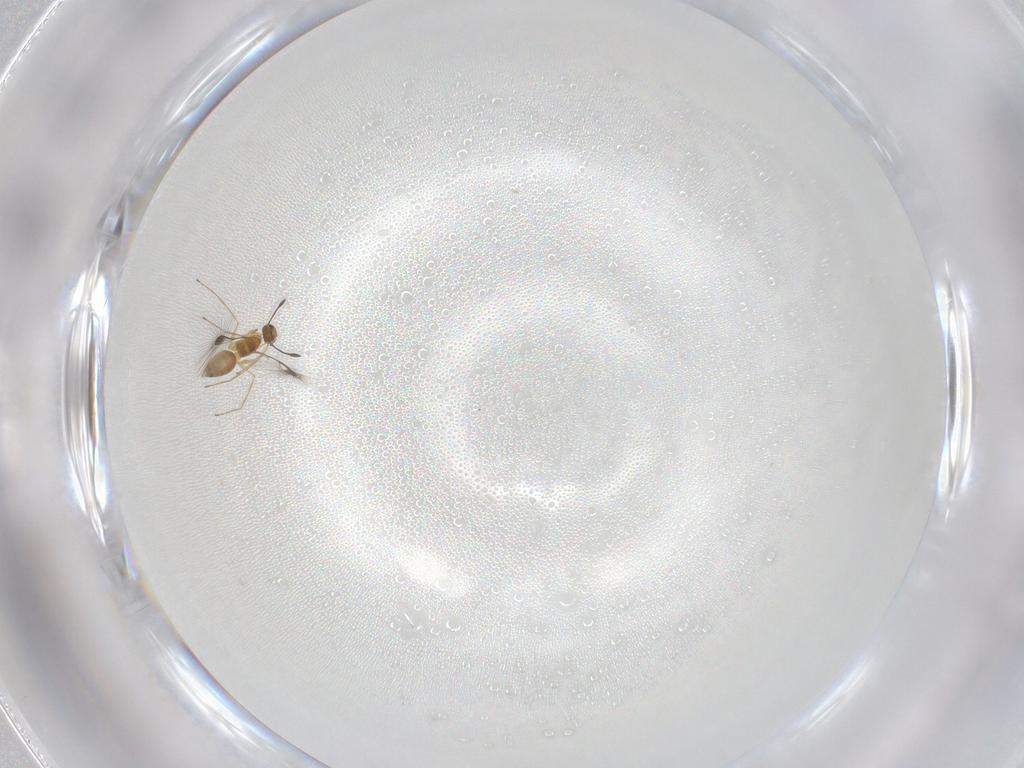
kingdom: Animalia
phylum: Arthropoda
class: Insecta
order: Hymenoptera
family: Mymaridae
